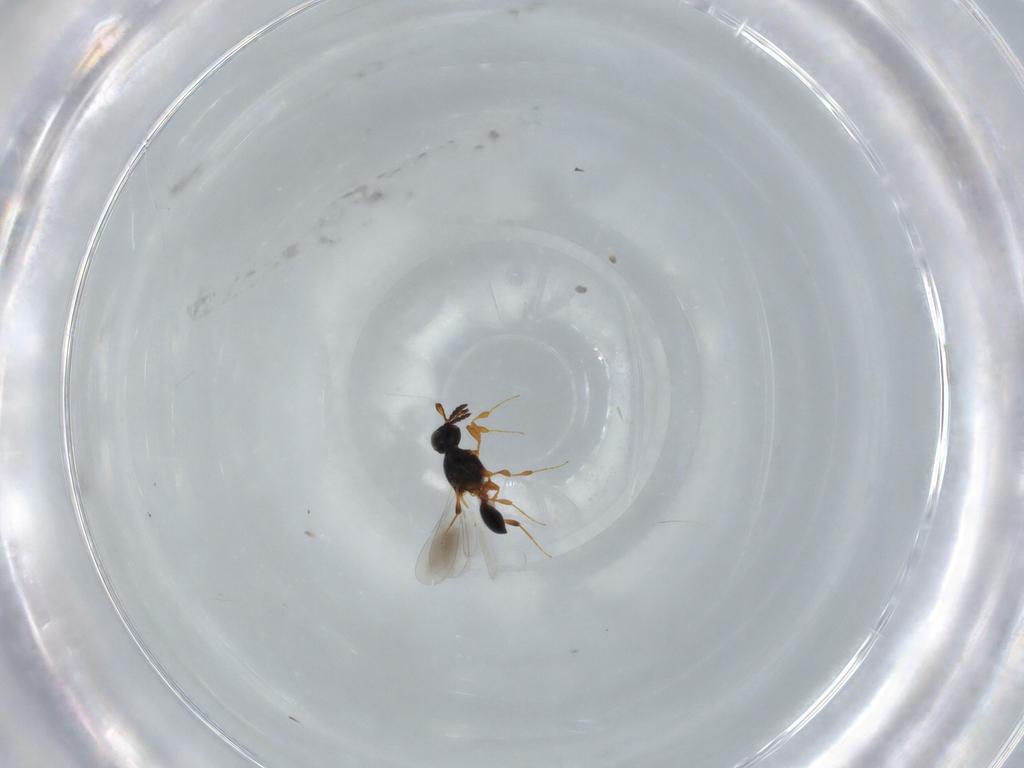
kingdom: Animalia
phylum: Arthropoda
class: Insecta
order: Hymenoptera
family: Platygastridae
